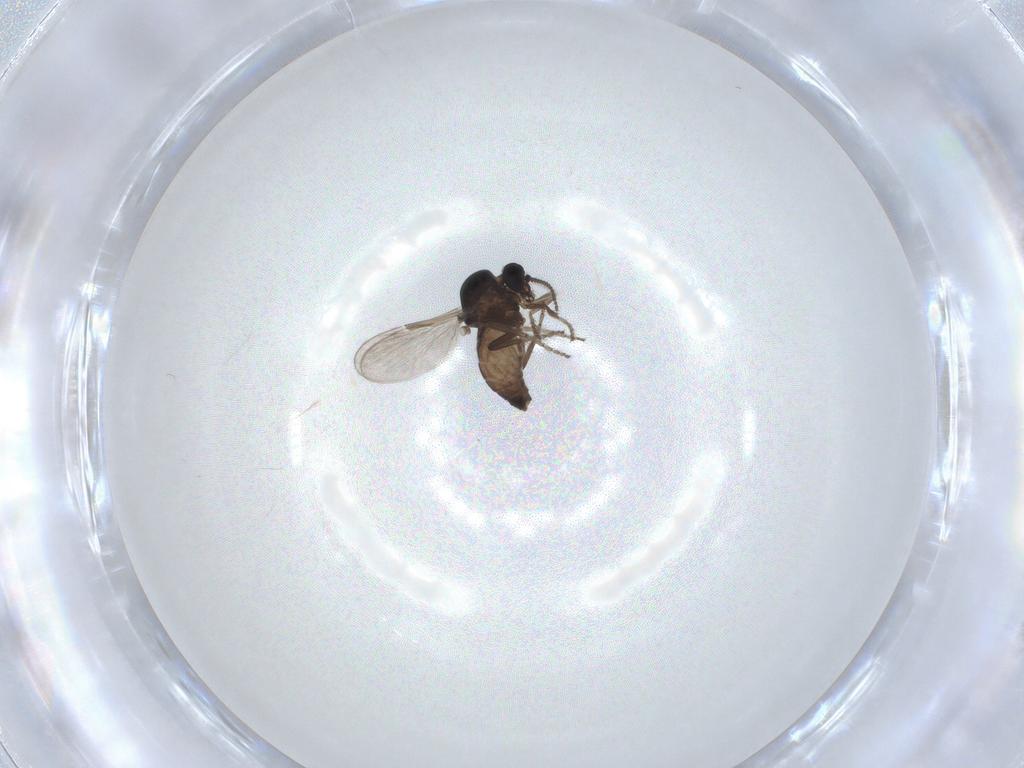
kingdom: Animalia
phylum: Arthropoda
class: Insecta
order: Diptera
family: Ceratopogonidae
